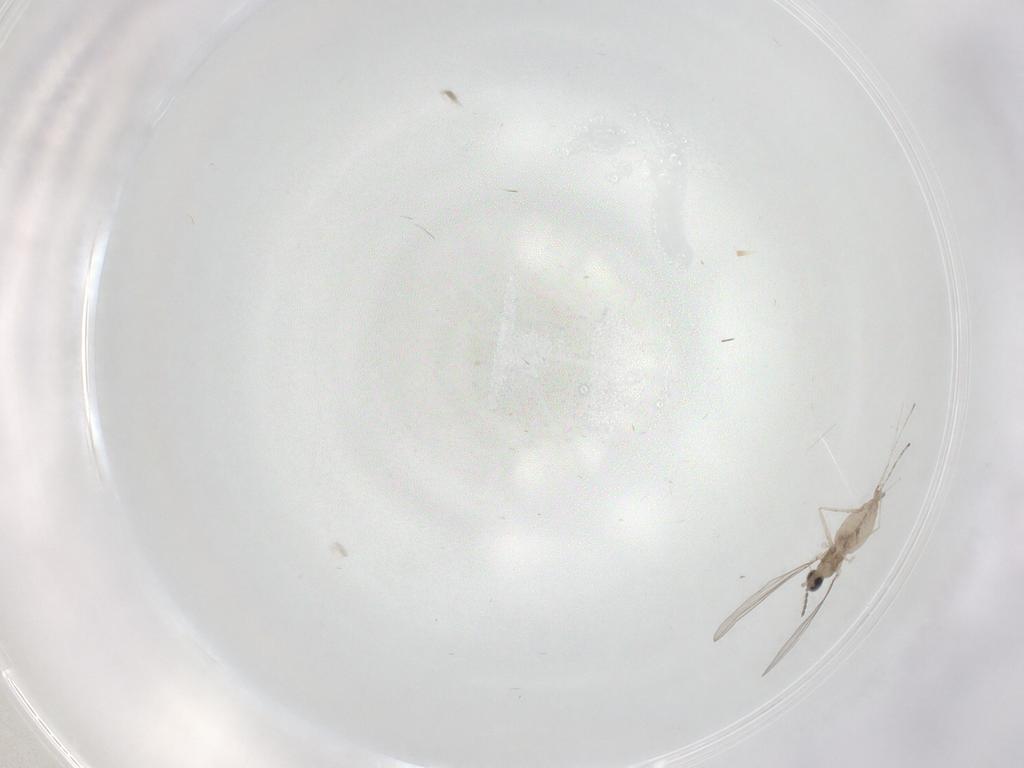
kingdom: Animalia
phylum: Arthropoda
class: Insecta
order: Diptera
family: Cecidomyiidae
